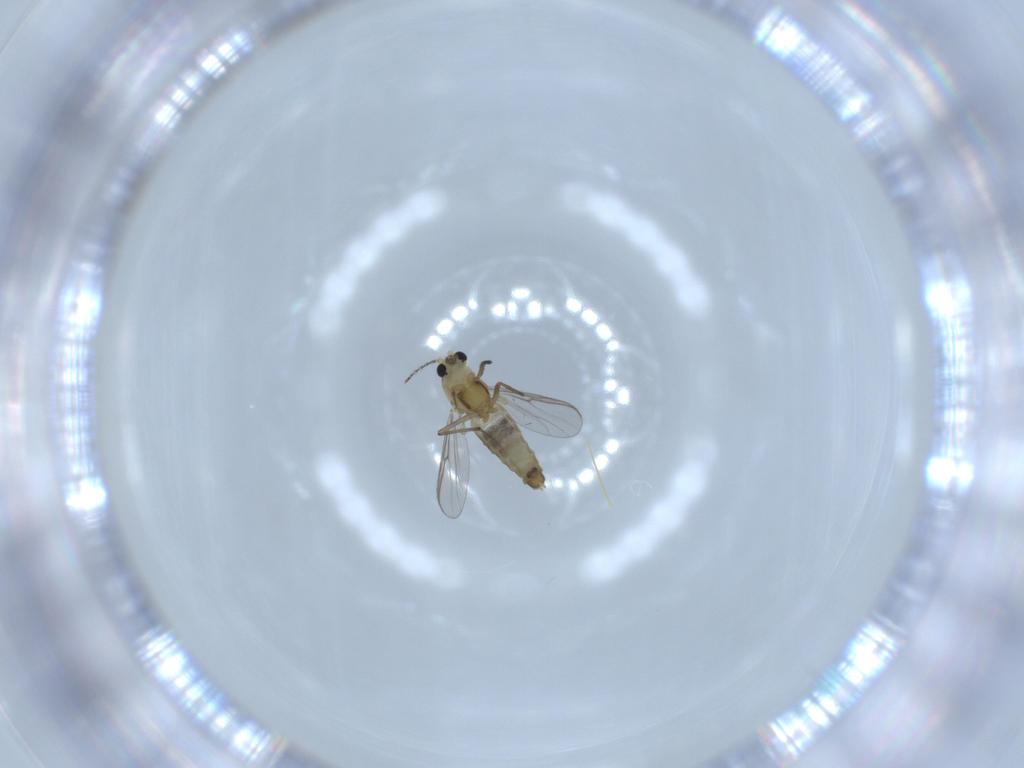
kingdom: Animalia
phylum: Arthropoda
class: Insecta
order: Diptera
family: Chironomidae
